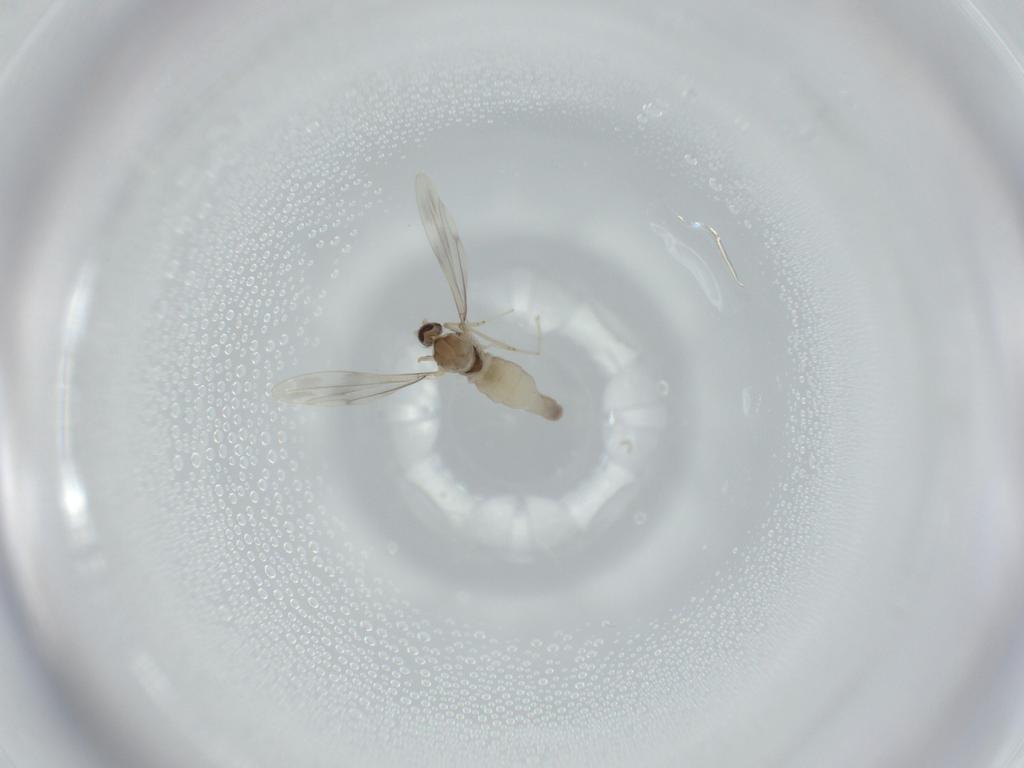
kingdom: Animalia
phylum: Arthropoda
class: Insecta
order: Diptera
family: Cecidomyiidae
